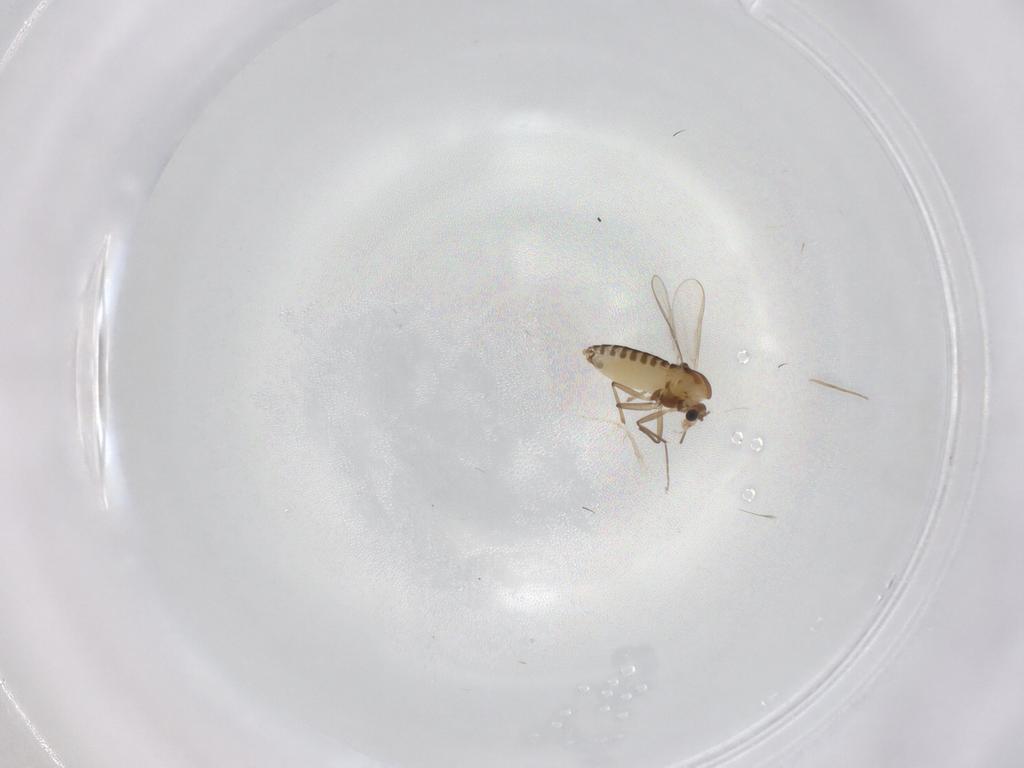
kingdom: Animalia
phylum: Arthropoda
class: Insecta
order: Diptera
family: Chironomidae
